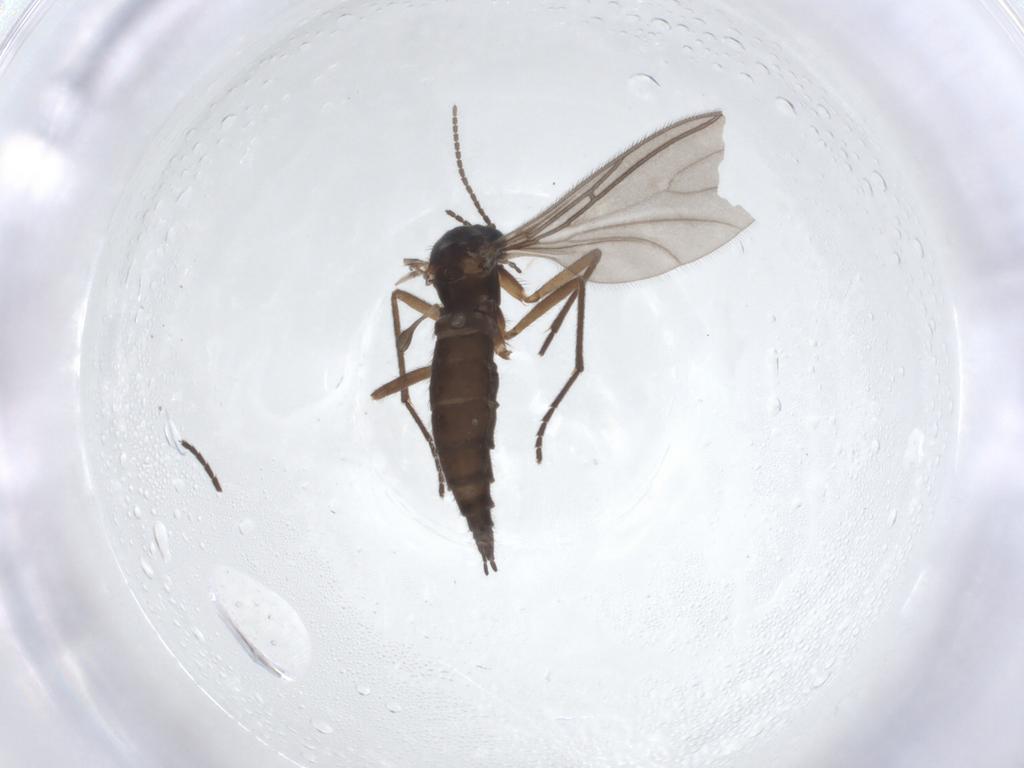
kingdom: Animalia
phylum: Arthropoda
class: Insecta
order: Diptera
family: Sciaridae
